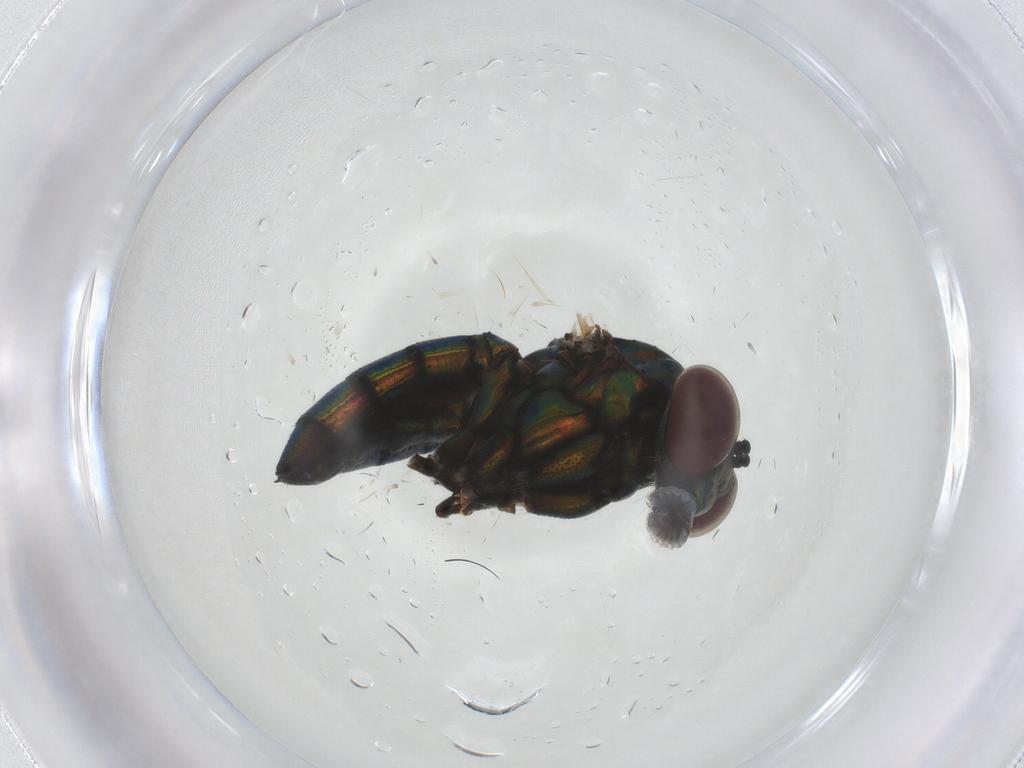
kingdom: Animalia
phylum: Arthropoda
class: Insecta
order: Diptera
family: Dolichopodidae
